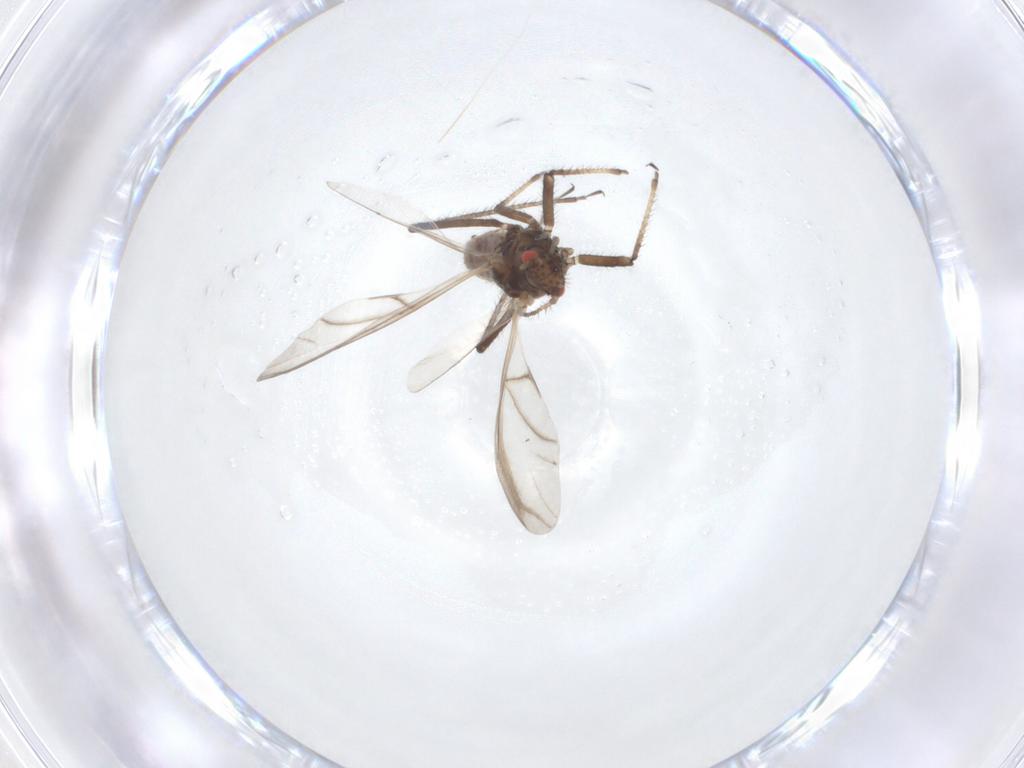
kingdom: Animalia
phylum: Arthropoda
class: Insecta
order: Hemiptera
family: Aphididae
